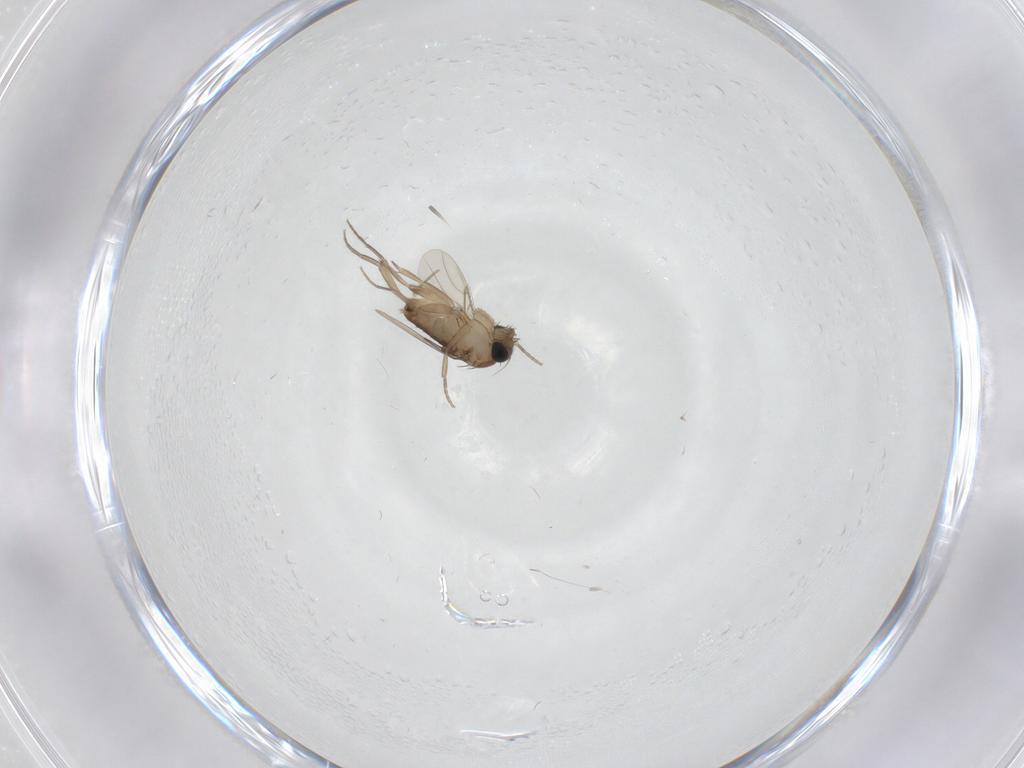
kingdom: Animalia
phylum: Arthropoda
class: Insecta
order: Diptera
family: Phoridae
